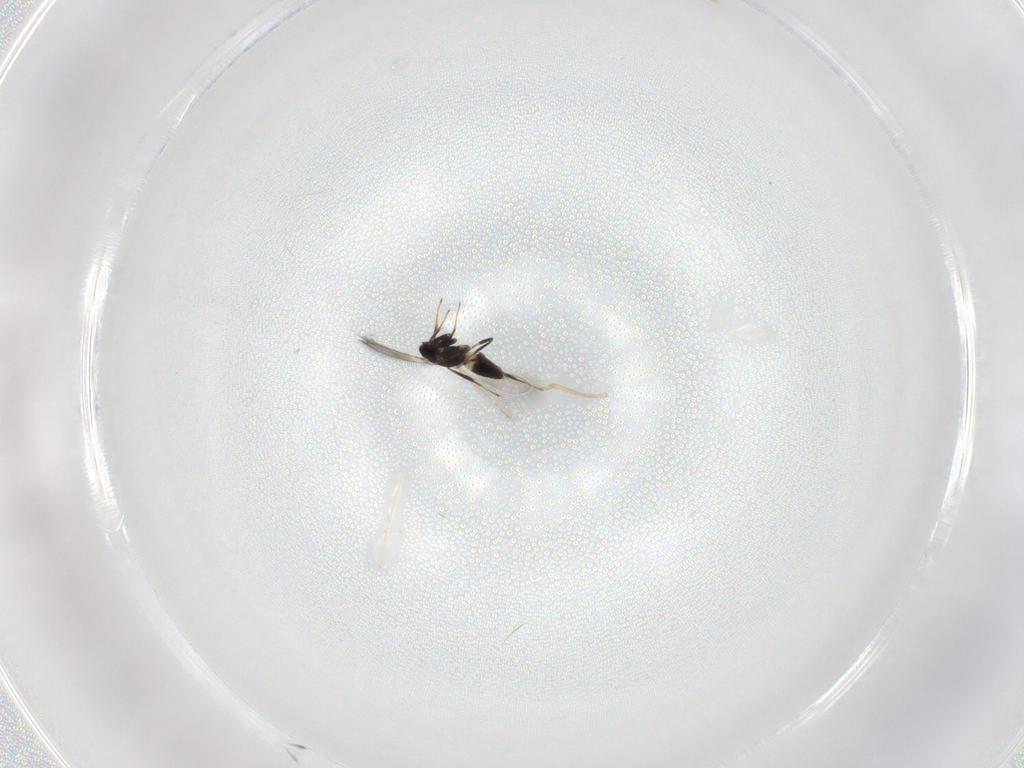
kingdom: Animalia
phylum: Arthropoda
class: Insecta
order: Hymenoptera
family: Mymaridae
